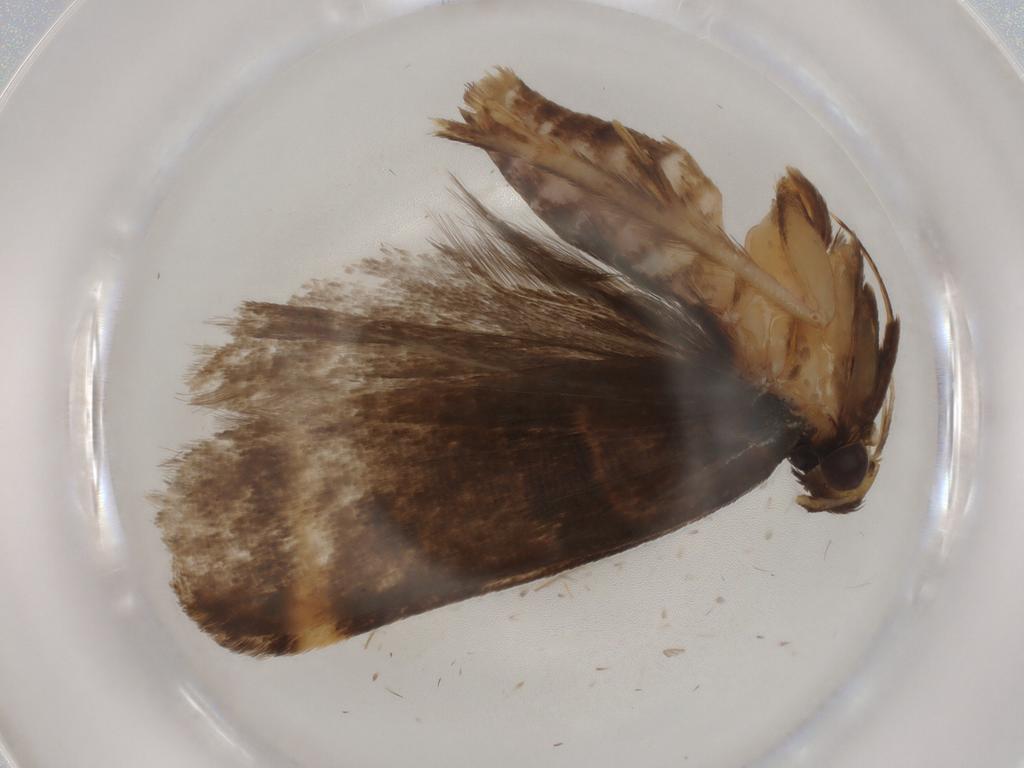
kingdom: Animalia
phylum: Arthropoda
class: Insecta
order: Lepidoptera
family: Gelechiidae
